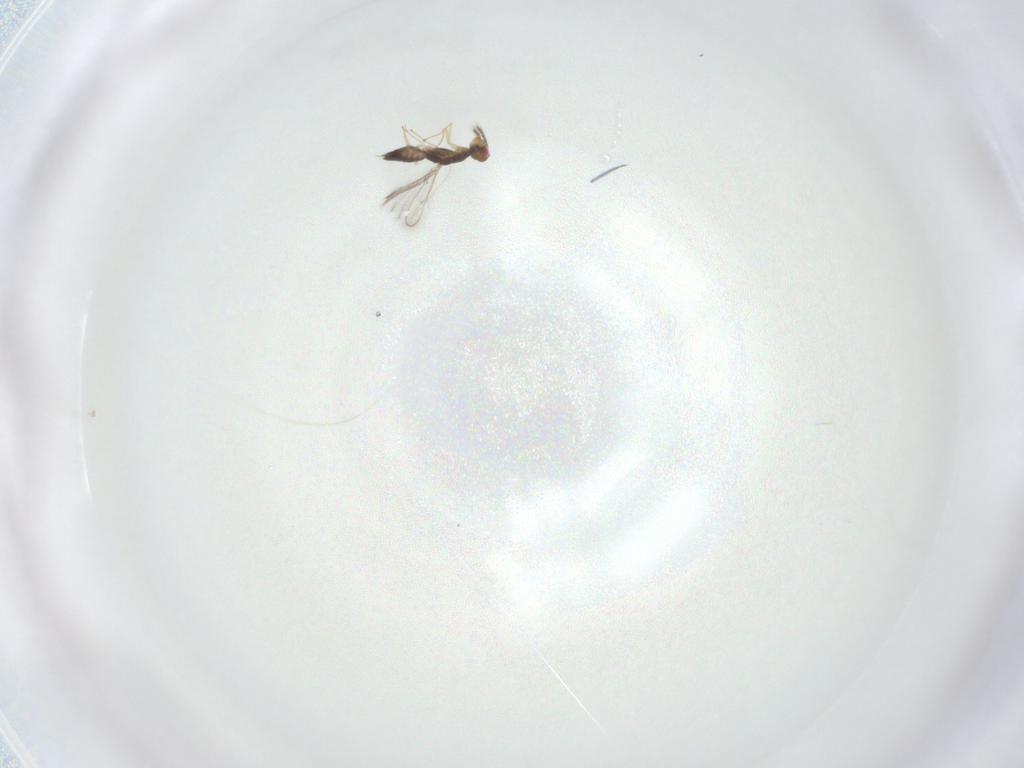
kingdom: Animalia
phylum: Arthropoda
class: Insecta
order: Hymenoptera
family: Eulophidae
